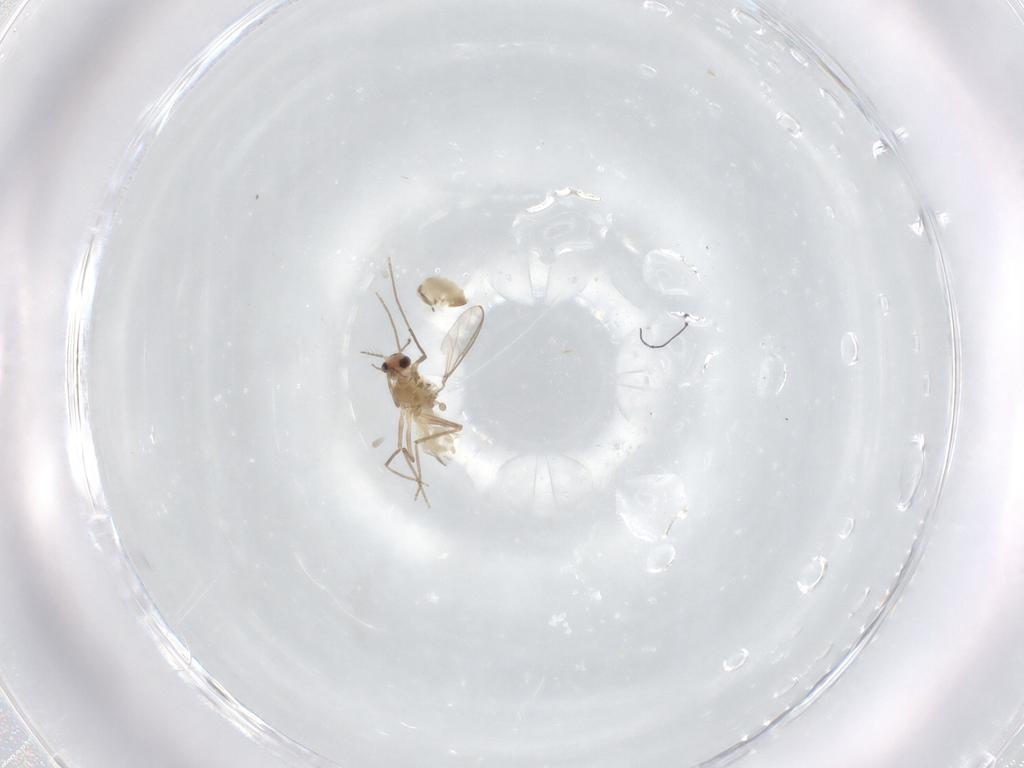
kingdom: Animalia
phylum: Arthropoda
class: Insecta
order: Diptera
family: Chironomidae
